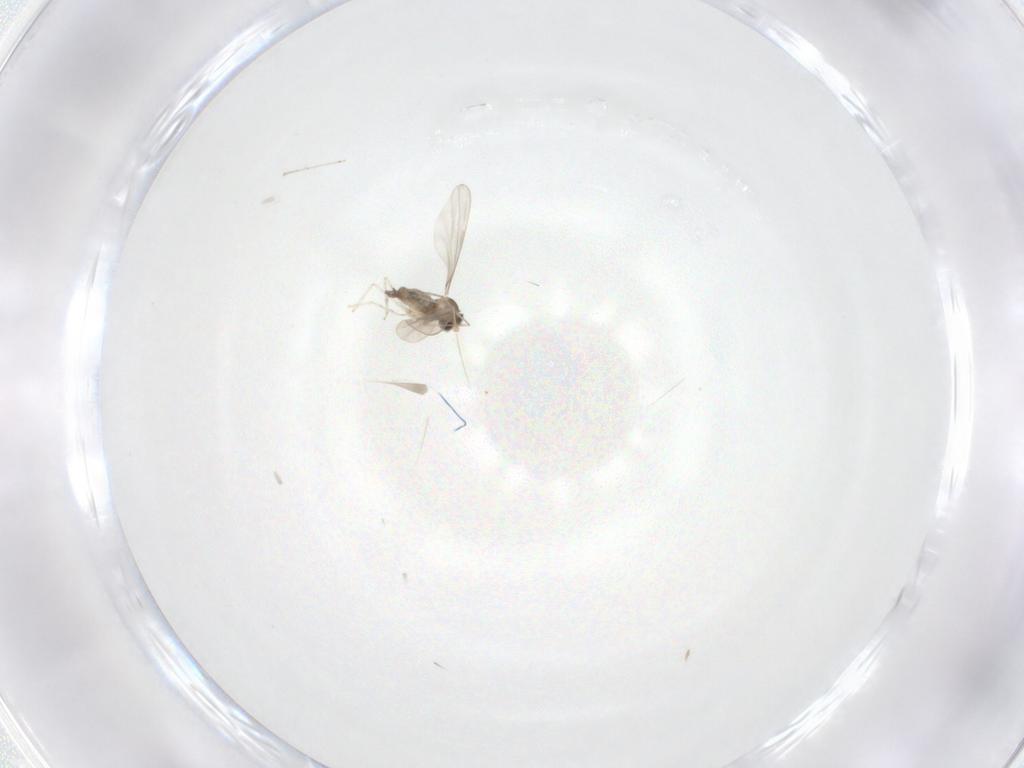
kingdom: Animalia
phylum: Arthropoda
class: Insecta
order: Diptera
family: Cecidomyiidae
